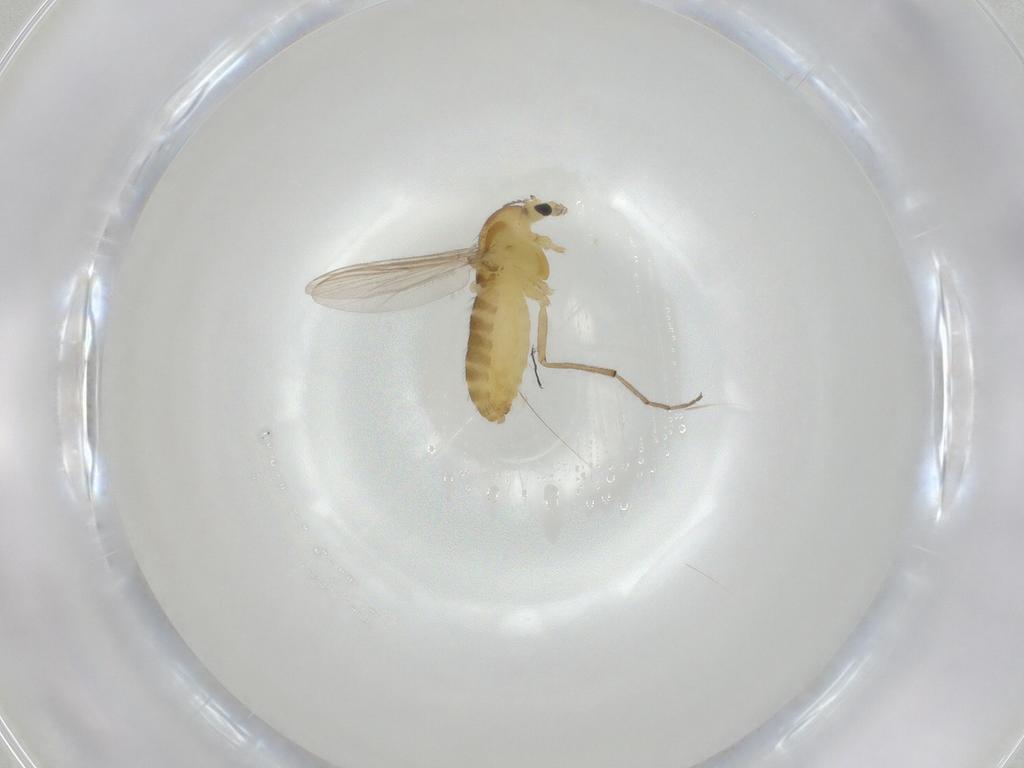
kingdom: Animalia
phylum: Arthropoda
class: Insecta
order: Diptera
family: Chironomidae
